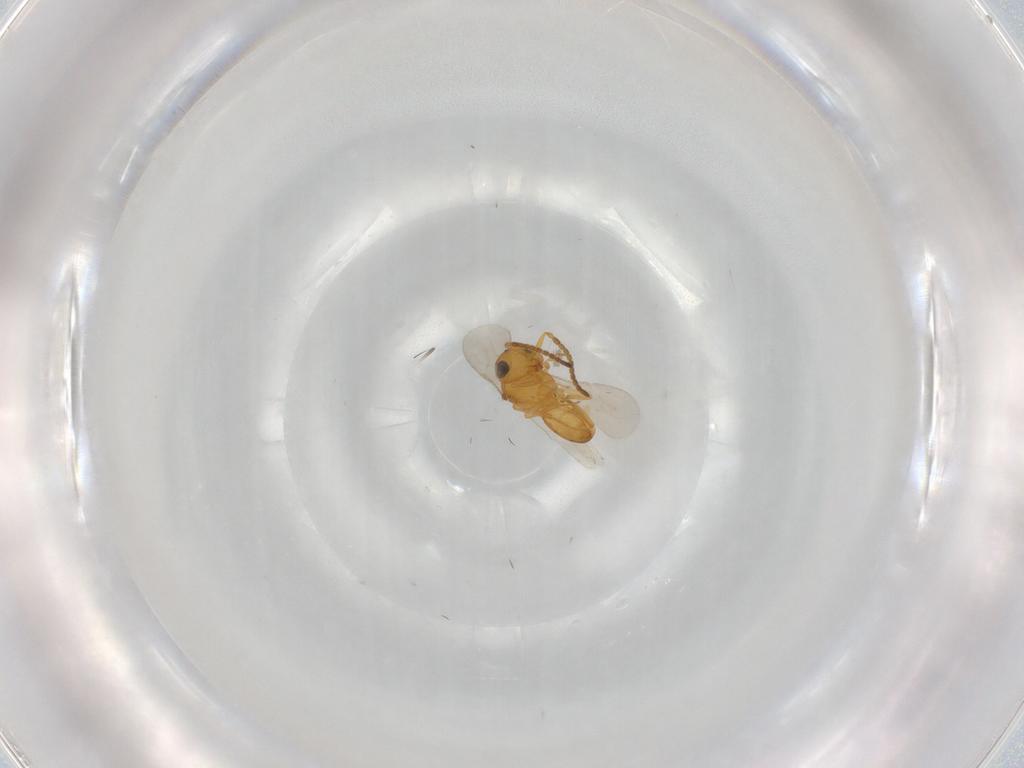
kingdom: Animalia
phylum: Arthropoda
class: Insecta
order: Hymenoptera
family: Scelionidae
